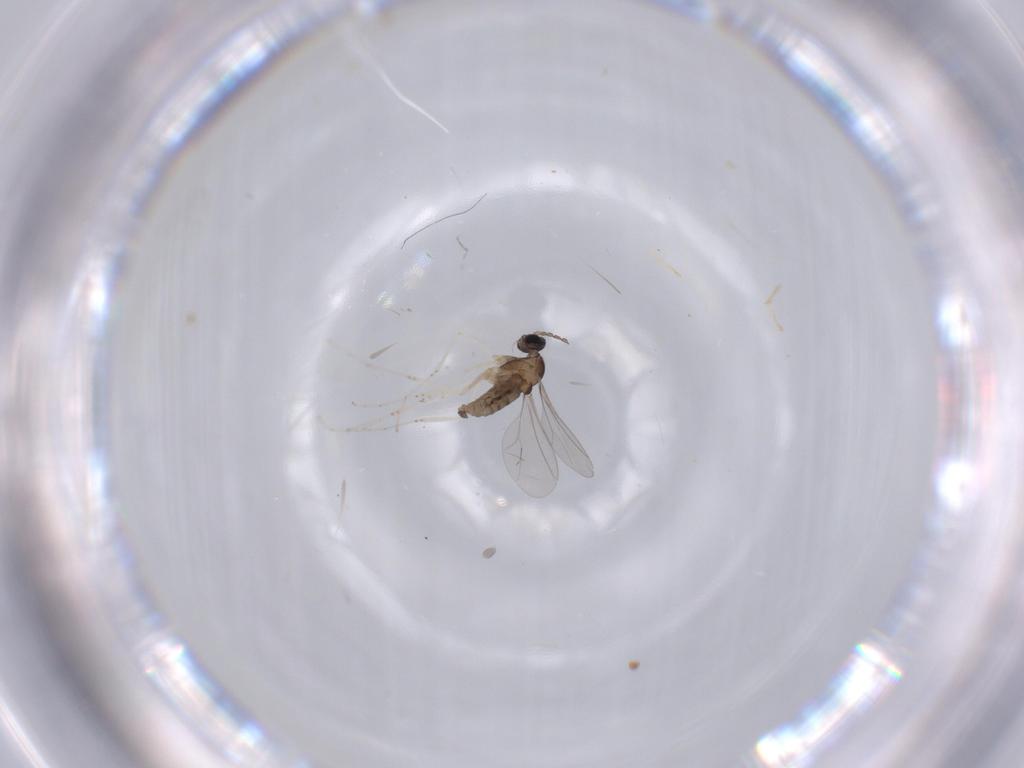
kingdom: Animalia
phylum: Arthropoda
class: Insecta
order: Diptera
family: Cecidomyiidae
